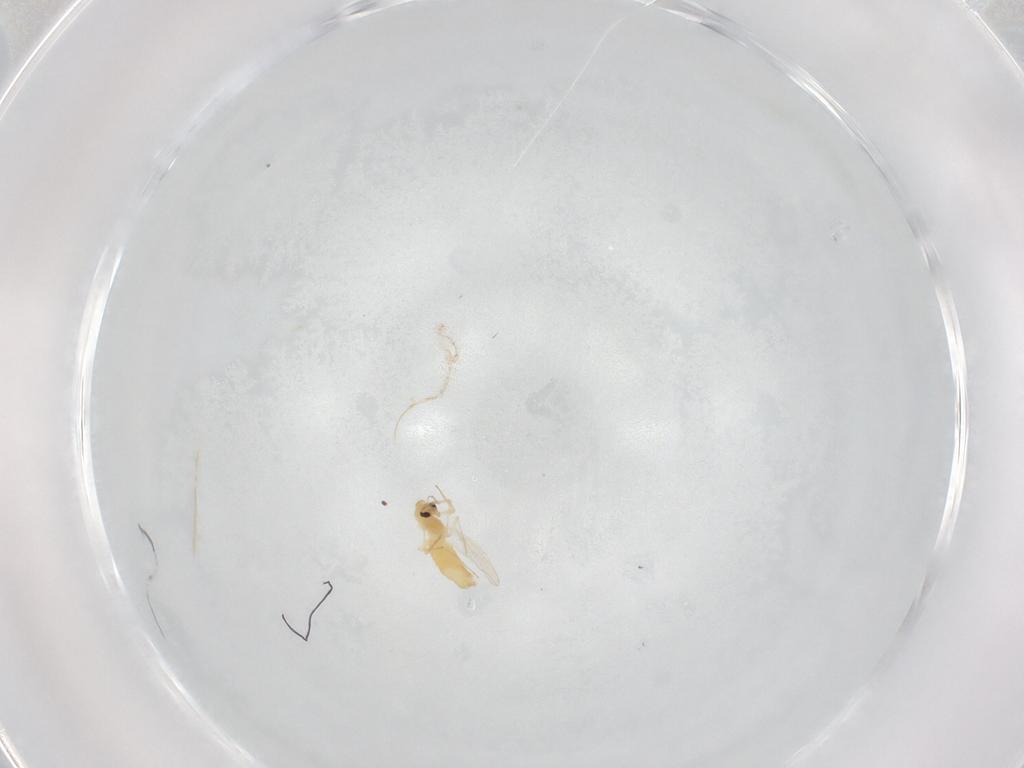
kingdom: Animalia
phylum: Arthropoda
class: Insecta
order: Diptera
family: Chironomidae
